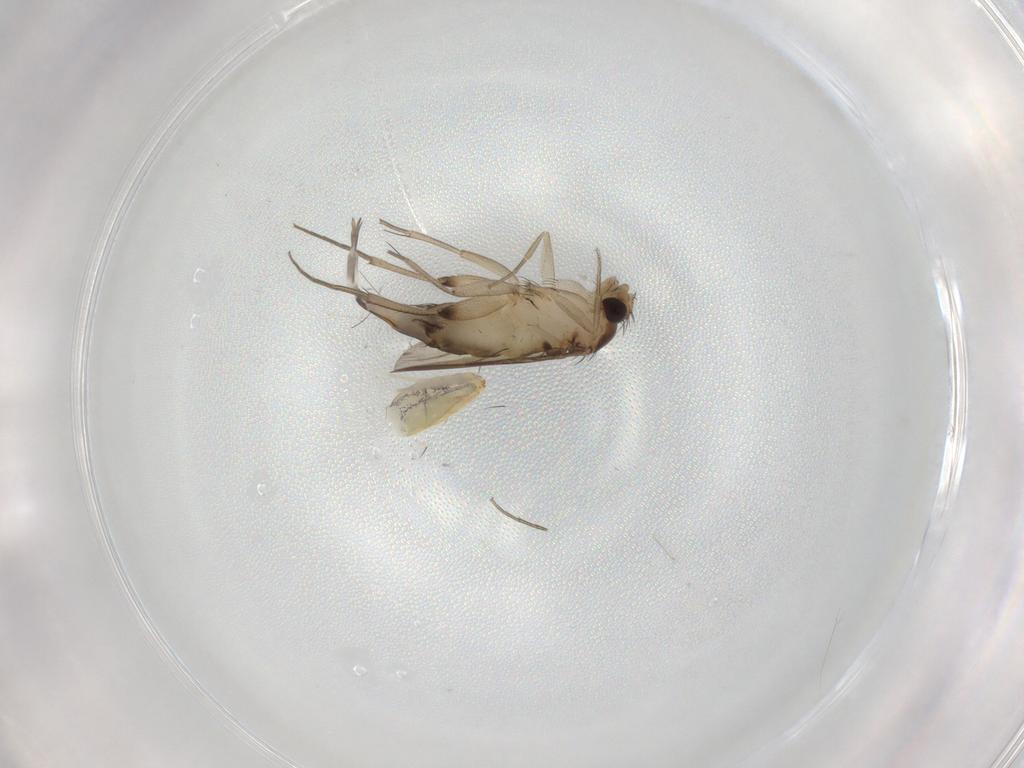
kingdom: Animalia
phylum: Arthropoda
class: Insecta
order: Diptera
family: Phoridae
